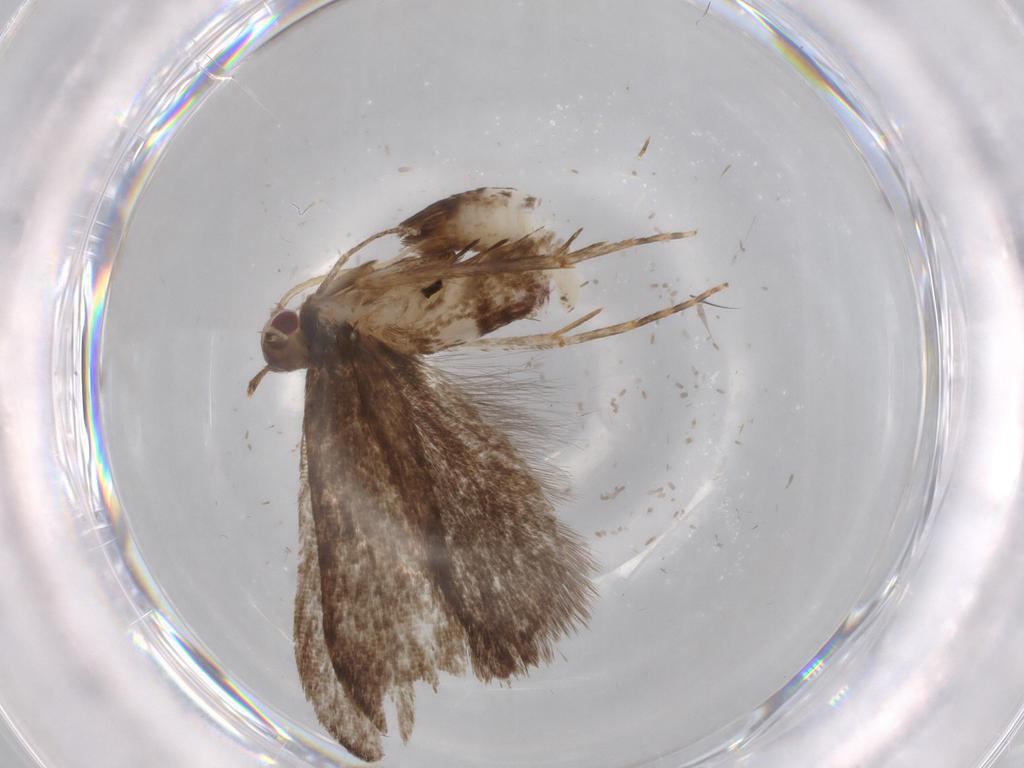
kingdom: Animalia
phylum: Arthropoda
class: Insecta
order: Lepidoptera
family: Gelechiidae
